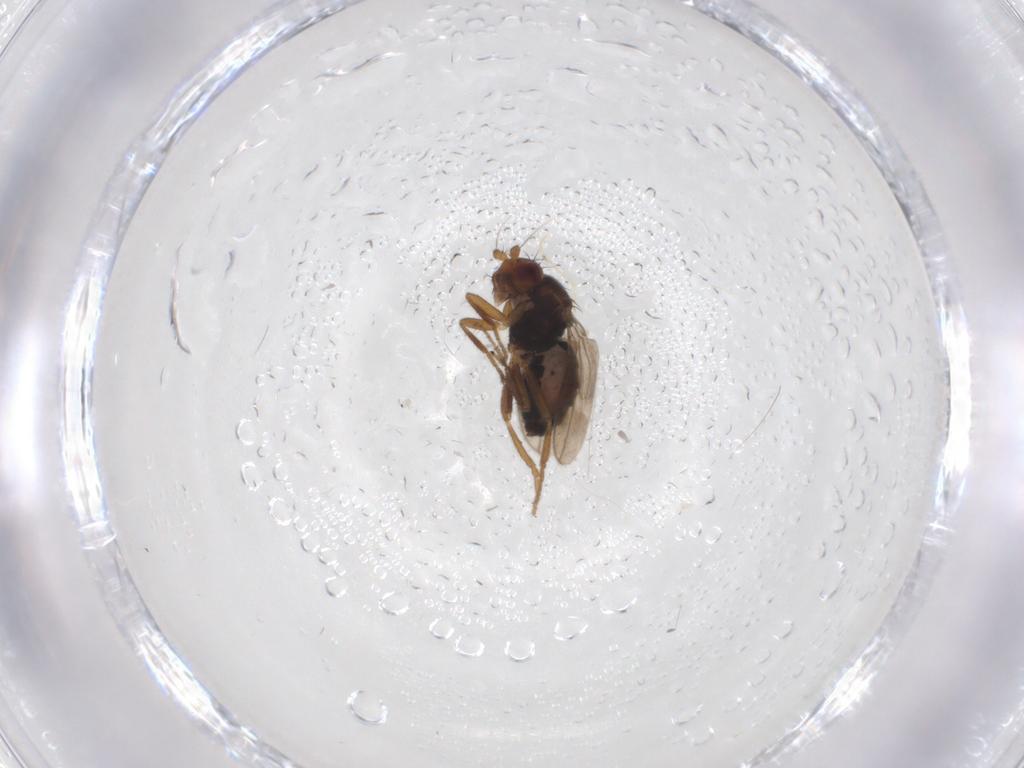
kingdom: Animalia
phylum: Arthropoda
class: Insecta
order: Diptera
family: Sphaeroceridae
